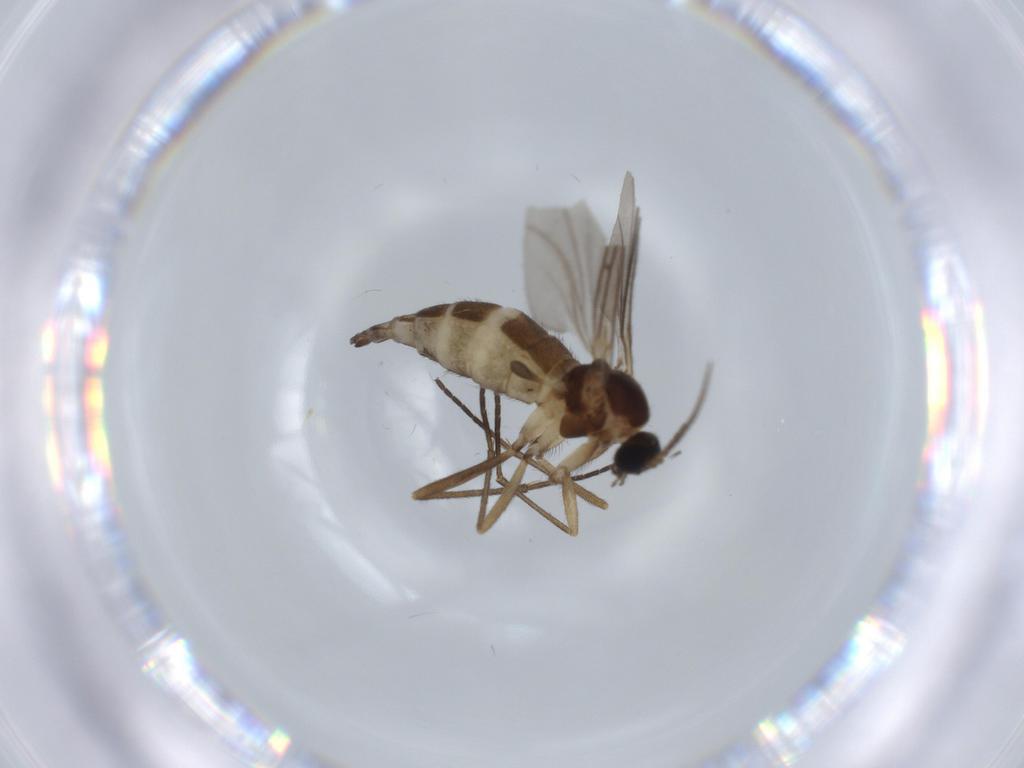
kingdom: Animalia
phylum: Arthropoda
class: Insecta
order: Diptera
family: Sciaridae
